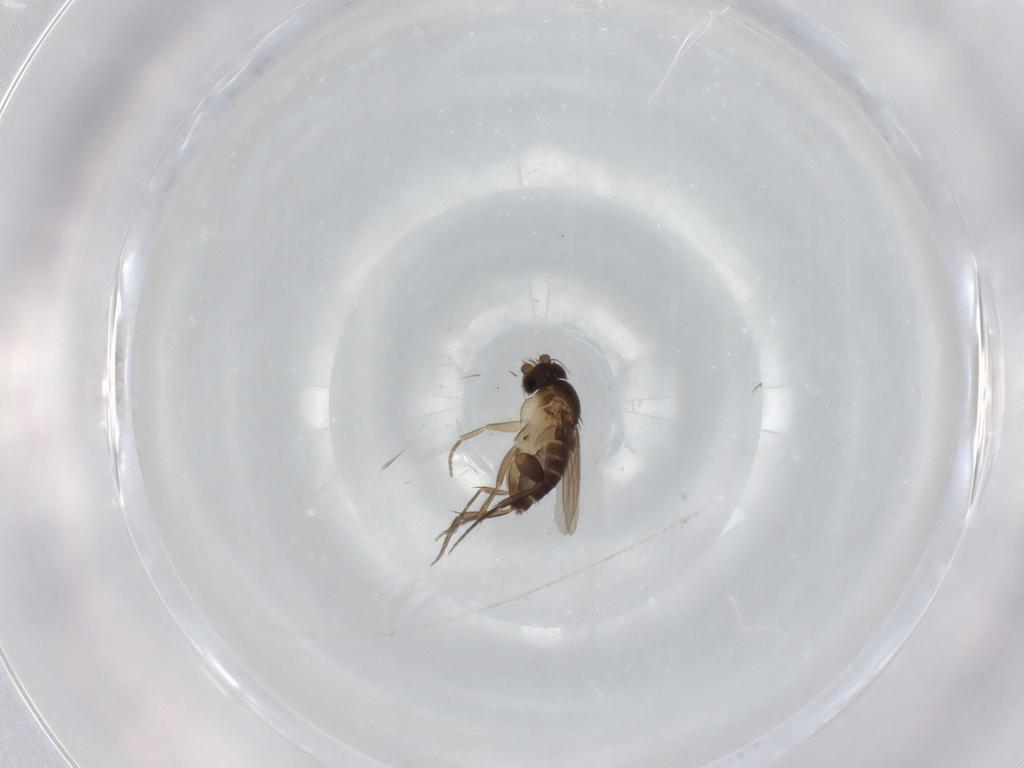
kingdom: Animalia
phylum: Arthropoda
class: Insecta
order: Diptera
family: Phoridae
